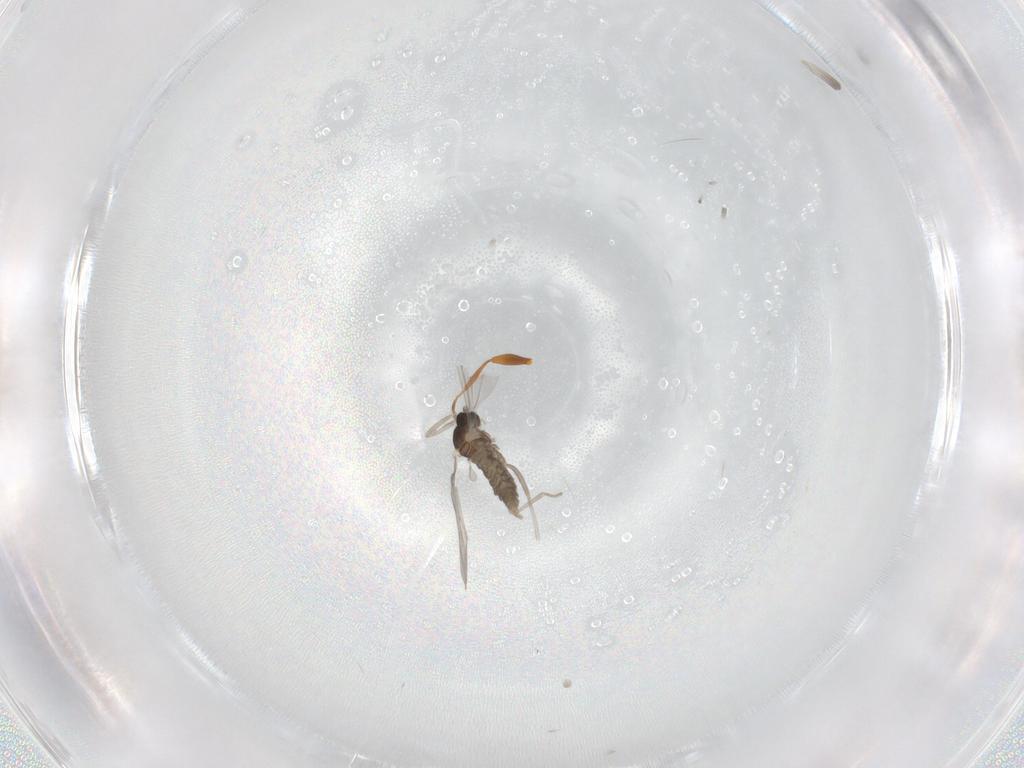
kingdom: Animalia
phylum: Arthropoda
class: Insecta
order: Diptera
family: Cecidomyiidae
